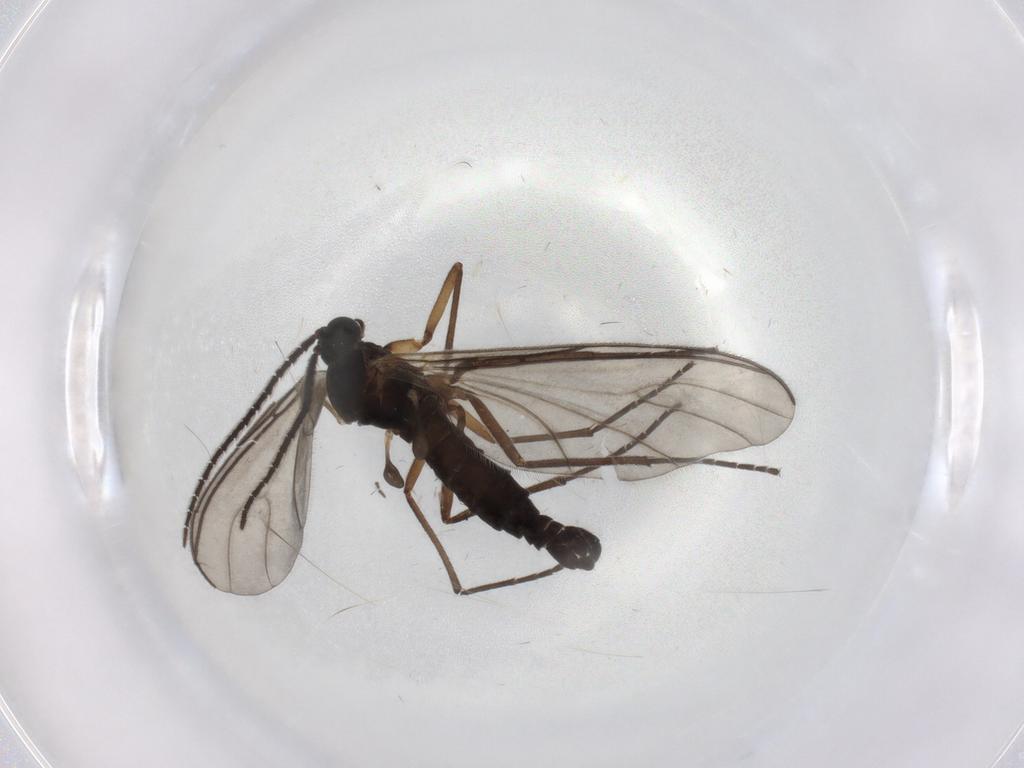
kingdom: Animalia
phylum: Arthropoda
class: Insecta
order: Diptera
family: Sciaridae
